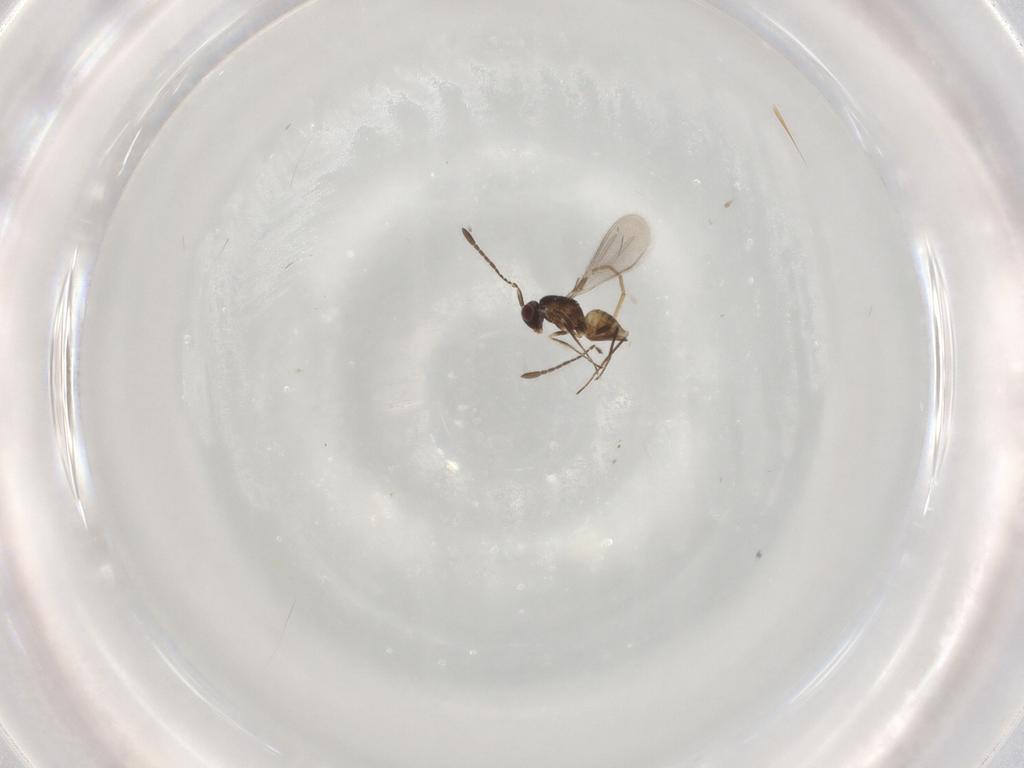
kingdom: Animalia
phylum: Arthropoda
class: Insecta
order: Hymenoptera
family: Mymaridae
